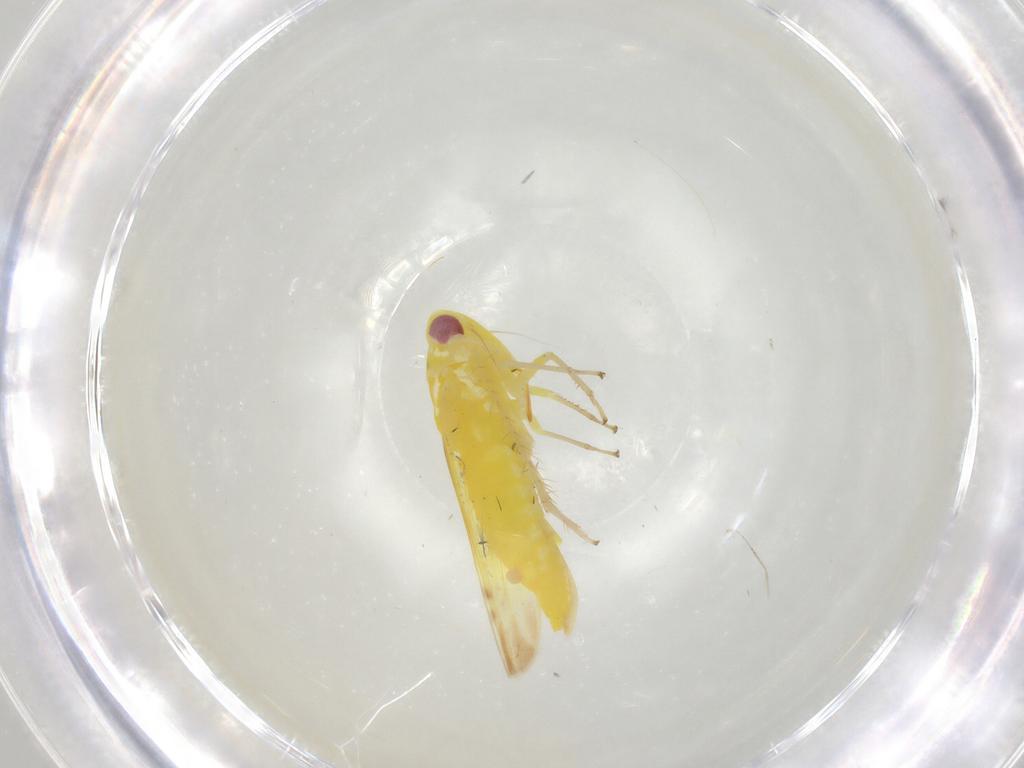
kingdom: Animalia
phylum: Arthropoda
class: Insecta
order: Hemiptera
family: Cicadellidae
